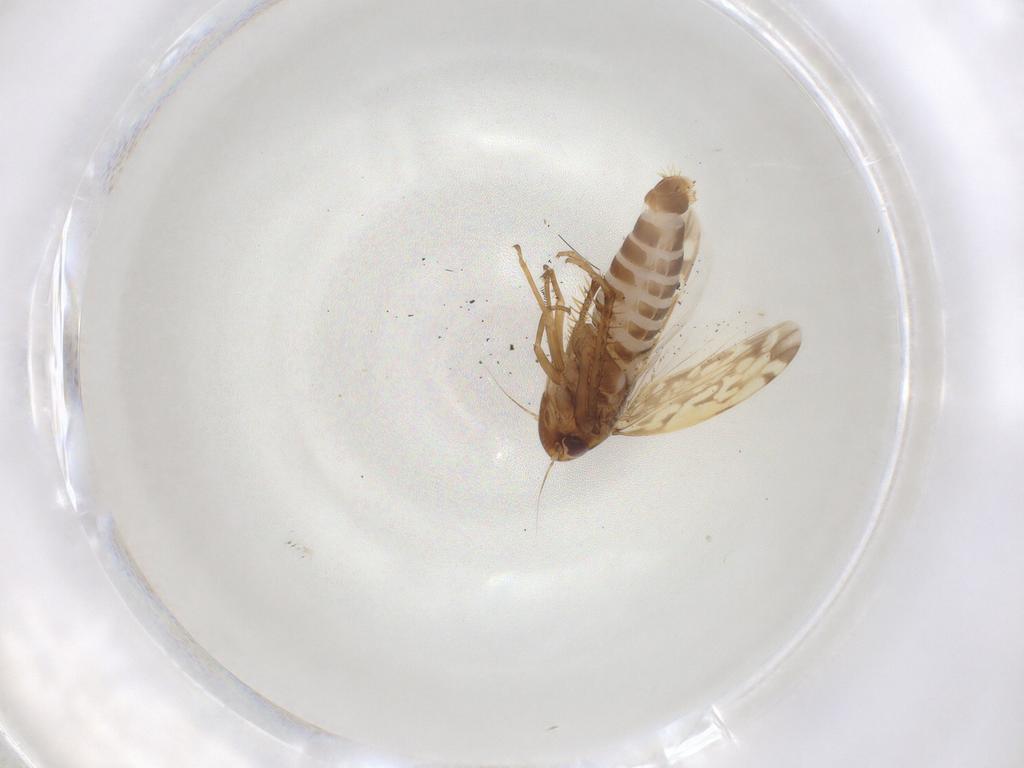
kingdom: Animalia
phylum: Arthropoda
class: Insecta
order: Hemiptera
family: Cicadellidae
